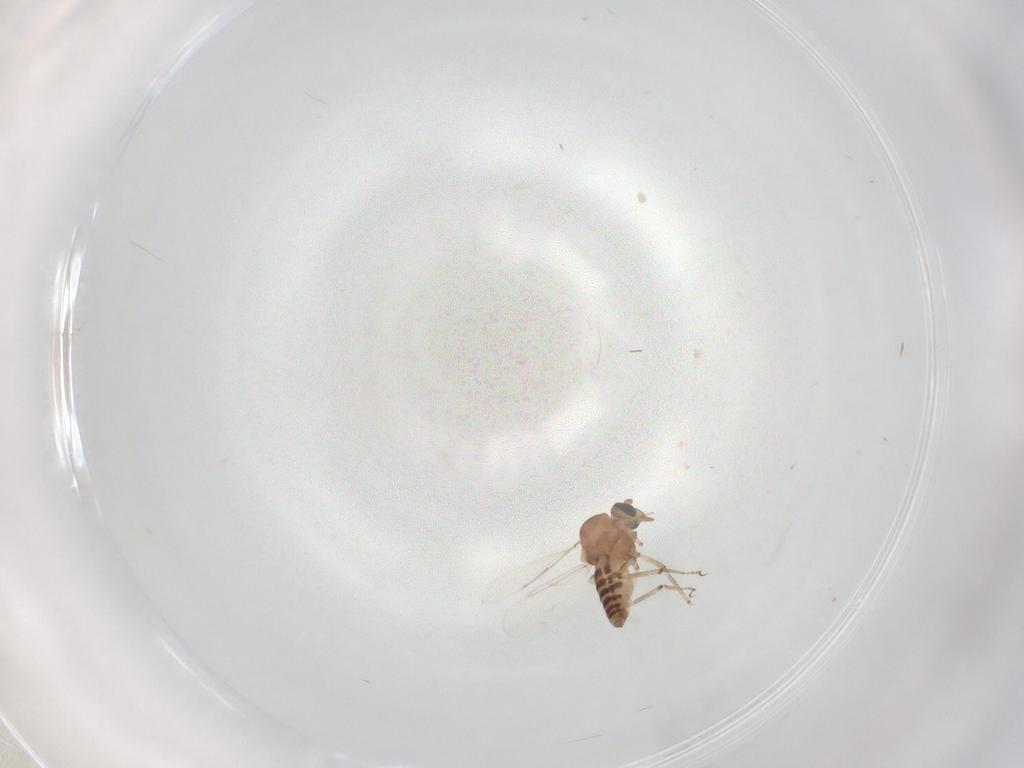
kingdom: Animalia
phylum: Arthropoda
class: Insecta
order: Diptera
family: Ceratopogonidae
